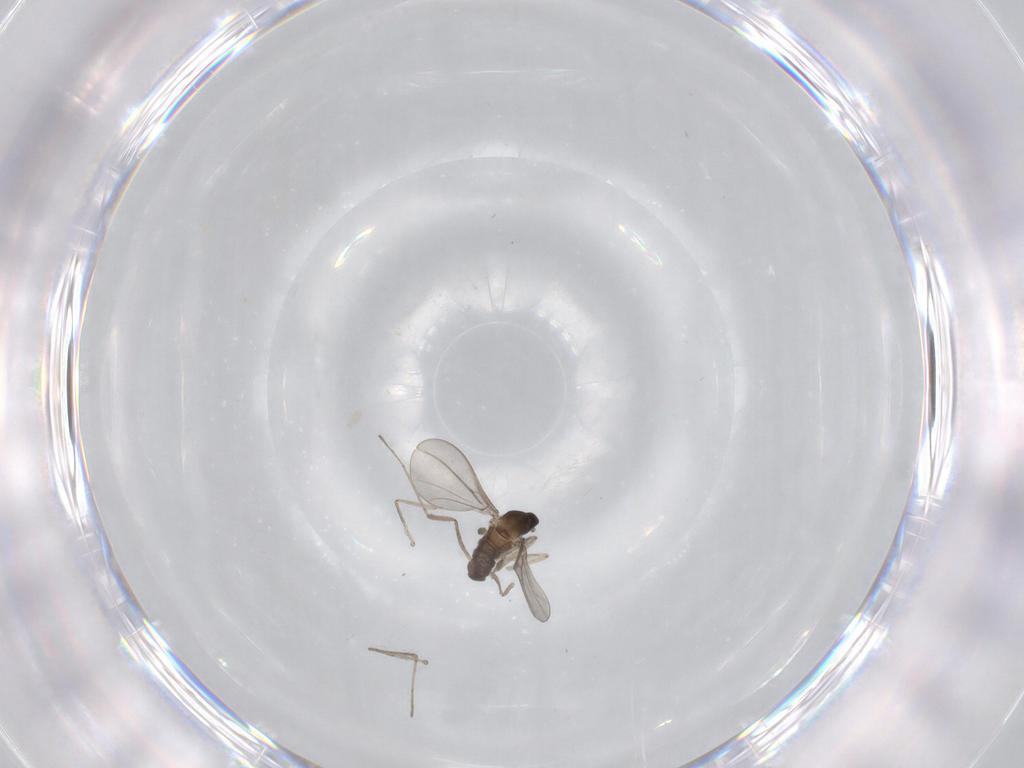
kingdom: Animalia
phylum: Arthropoda
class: Insecta
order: Diptera
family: Cecidomyiidae
